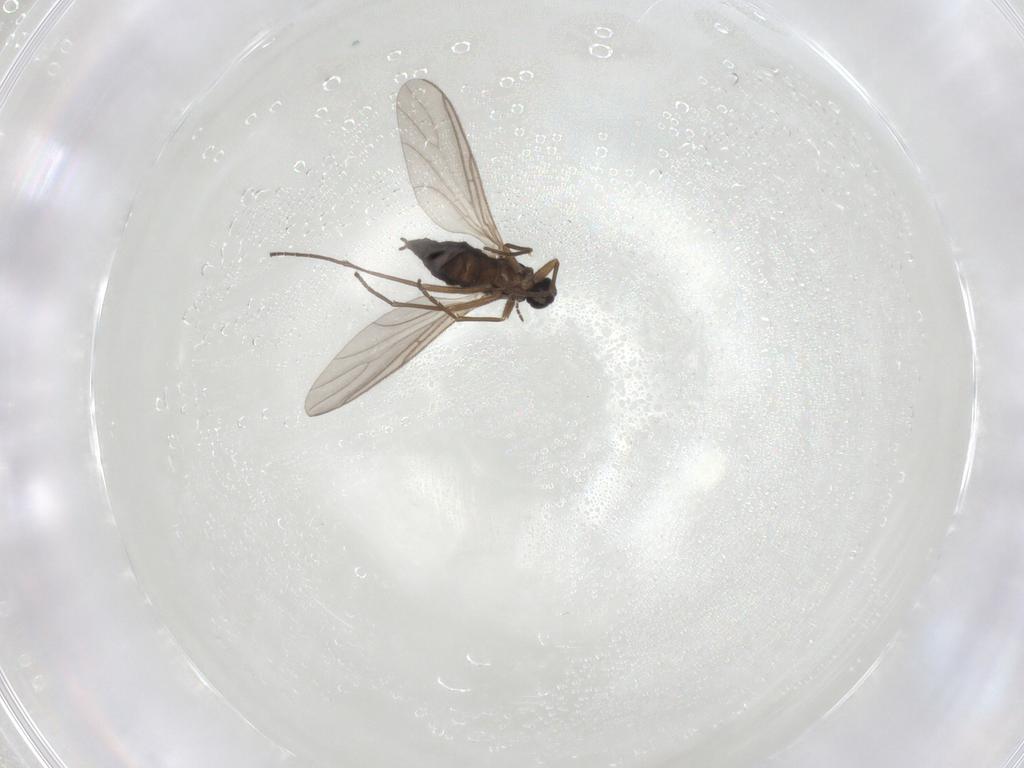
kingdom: Animalia
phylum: Arthropoda
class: Insecta
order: Diptera
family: Sciaridae
